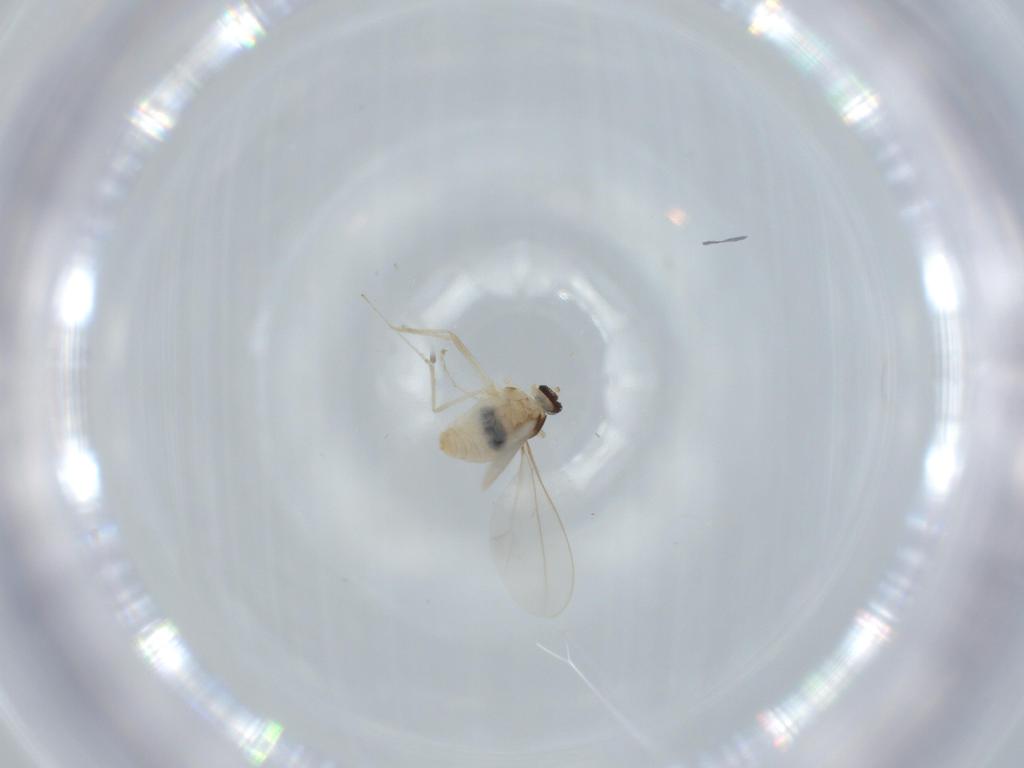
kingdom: Animalia
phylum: Arthropoda
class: Insecta
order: Diptera
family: Cecidomyiidae
